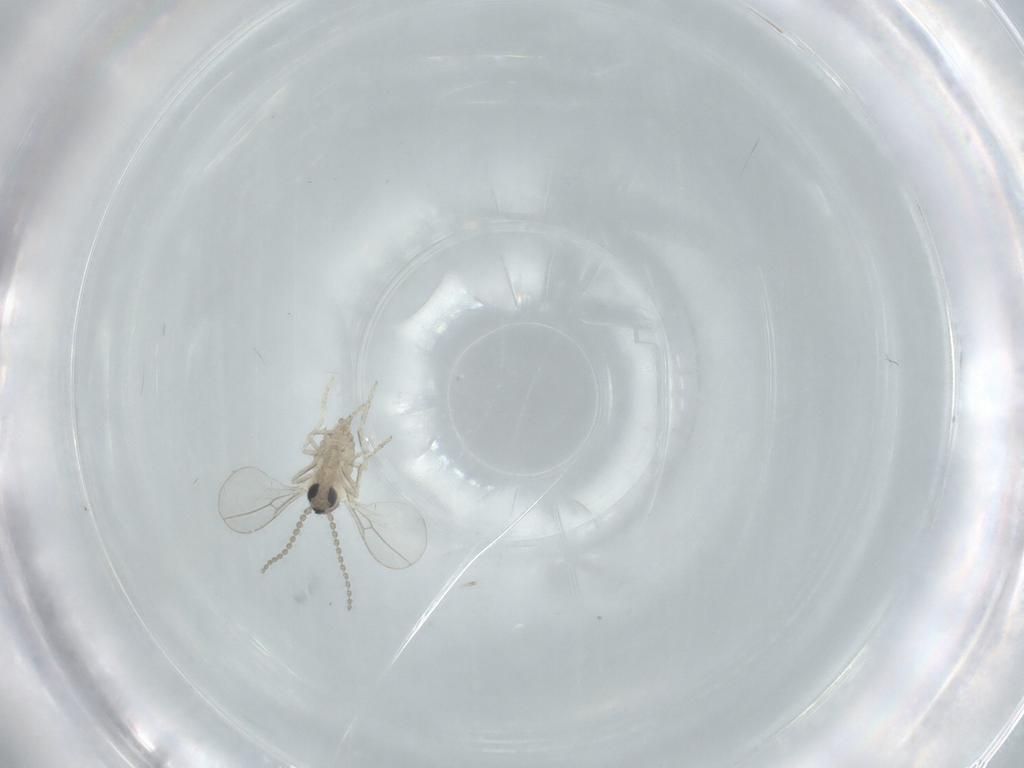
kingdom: Animalia
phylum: Arthropoda
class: Insecta
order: Diptera
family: Cecidomyiidae
